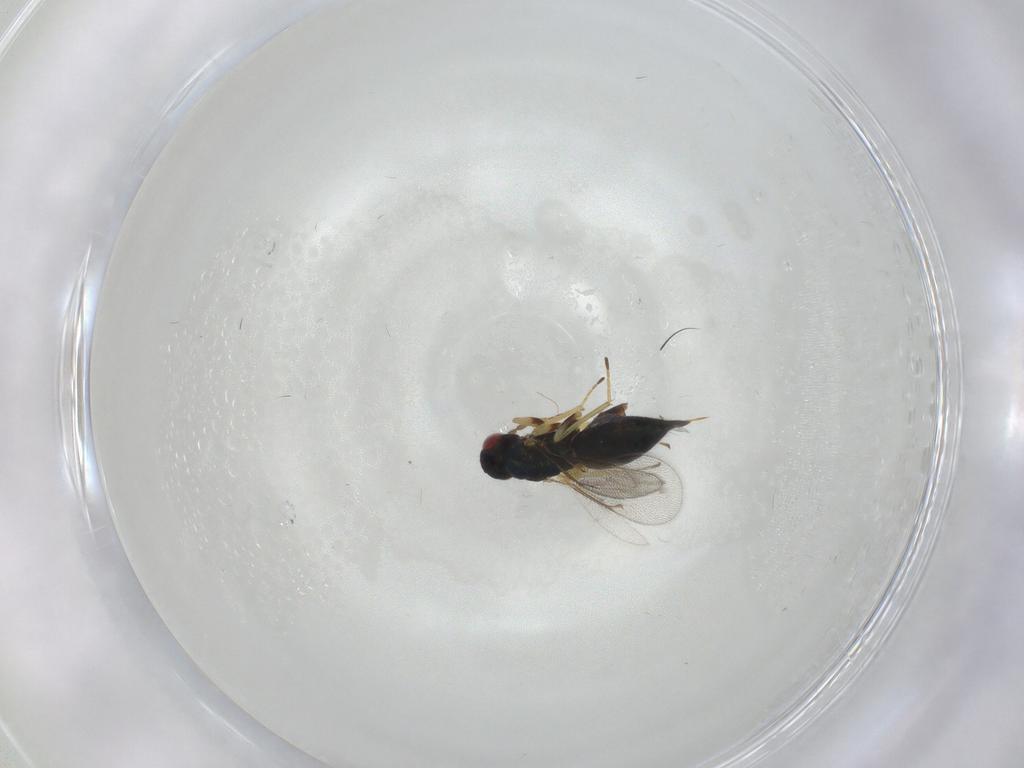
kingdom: Animalia
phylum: Arthropoda
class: Insecta
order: Hymenoptera
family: Eulophidae
